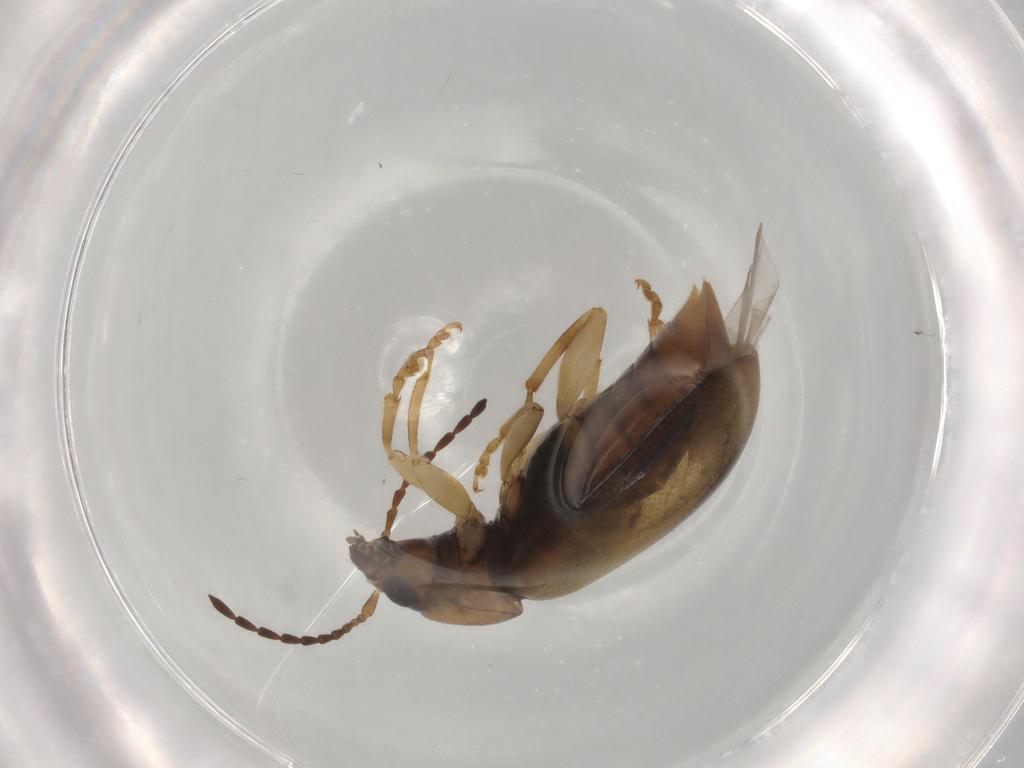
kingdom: Animalia
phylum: Arthropoda
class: Insecta
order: Coleoptera
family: Chrysomelidae
